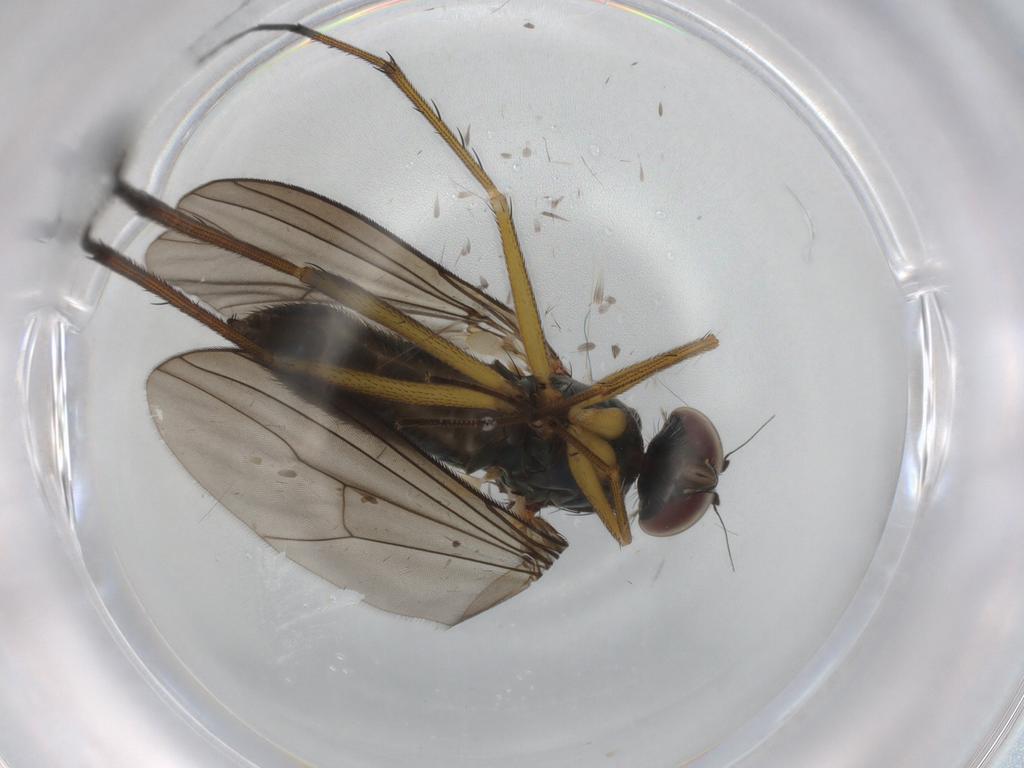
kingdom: Animalia
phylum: Arthropoda
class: Insecta
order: Diptera
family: Dolichopodidae
